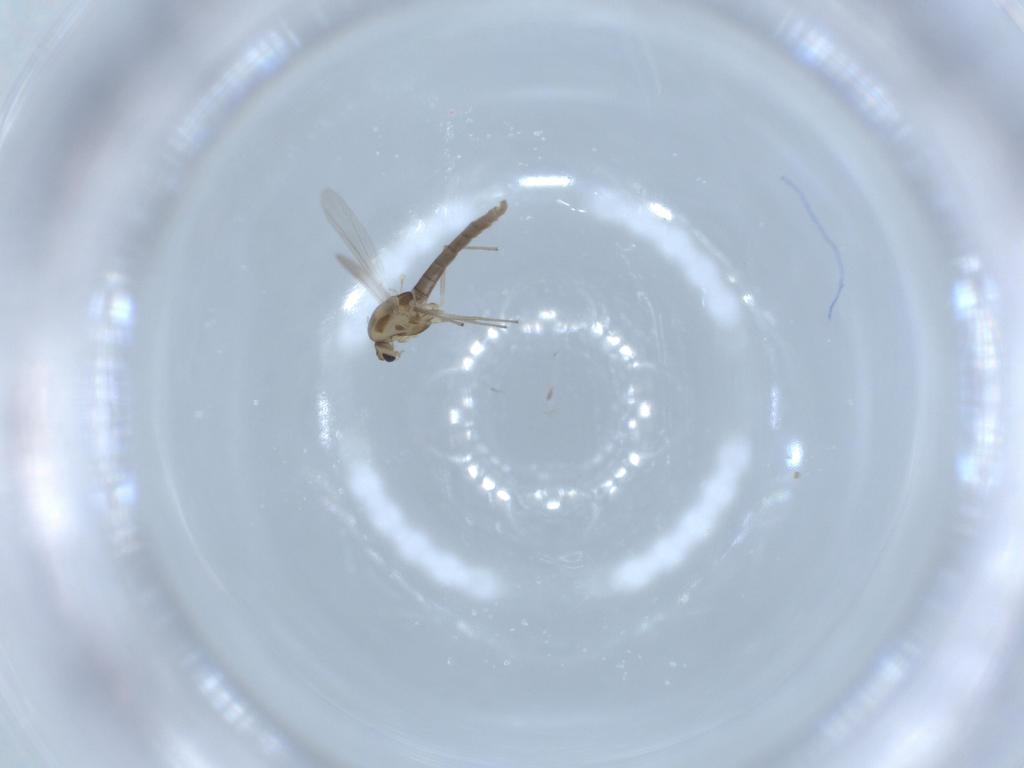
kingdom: Animalia
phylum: Arthropoda
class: Insecta
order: Diptera
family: Chironomidae
